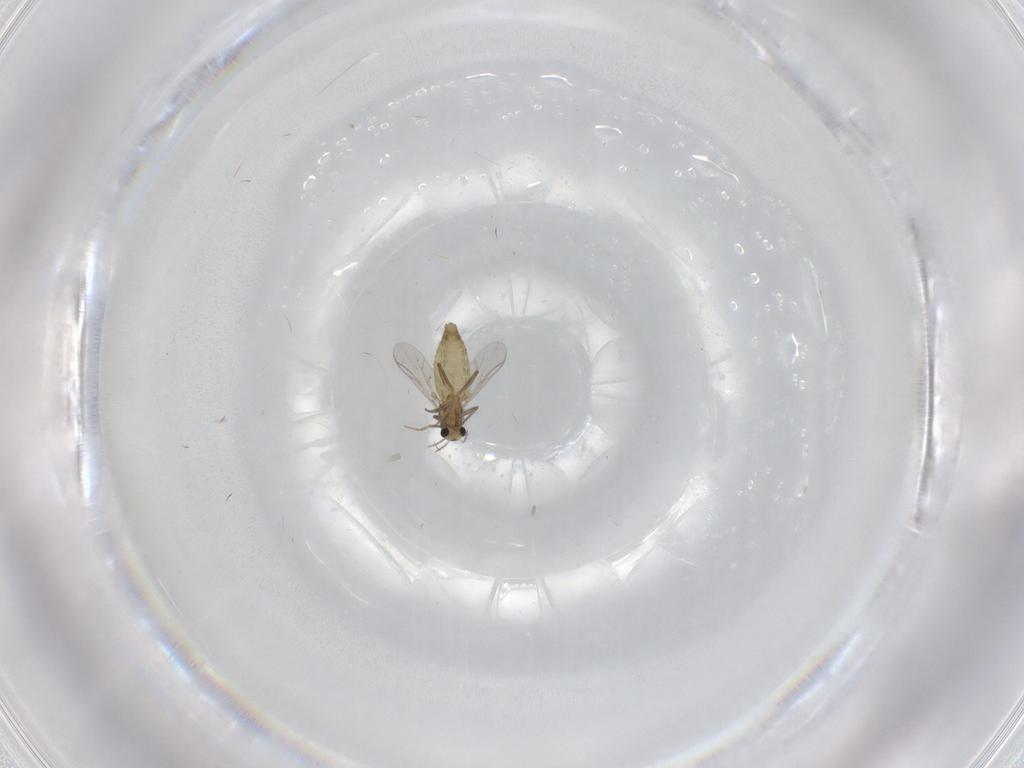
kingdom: Animalia
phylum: Arthropoda
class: Insecta
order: Diptera
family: Chironomidae
